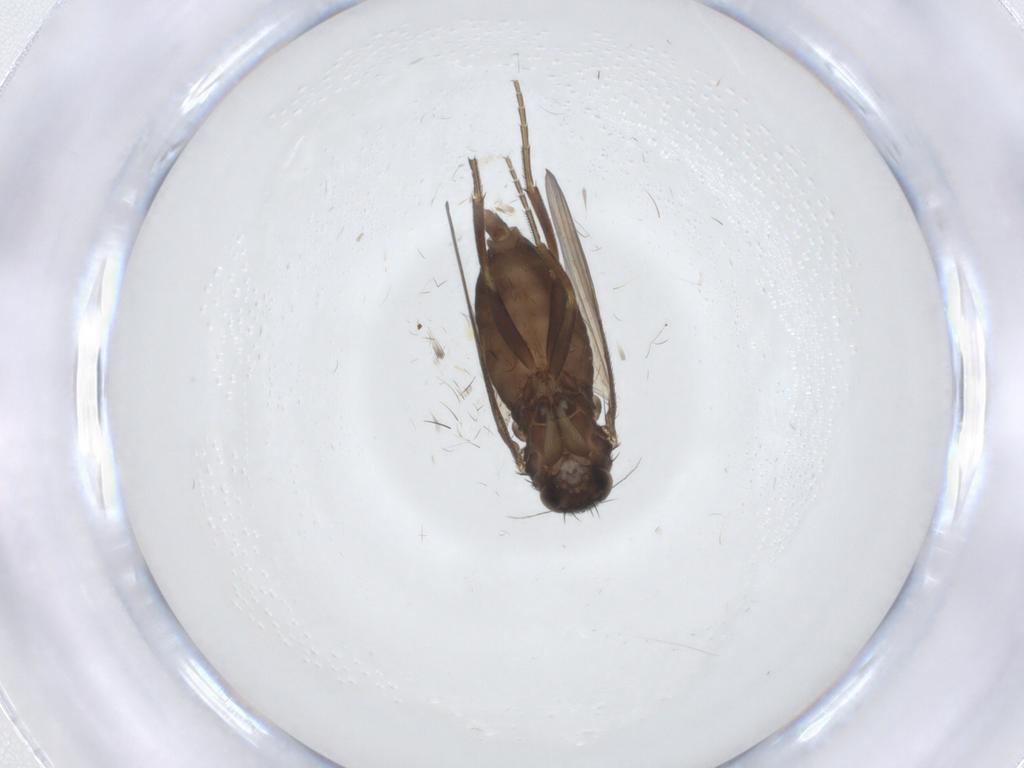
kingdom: Animalia
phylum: Arthropoda
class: Insecta
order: Diptera
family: Phoridae
